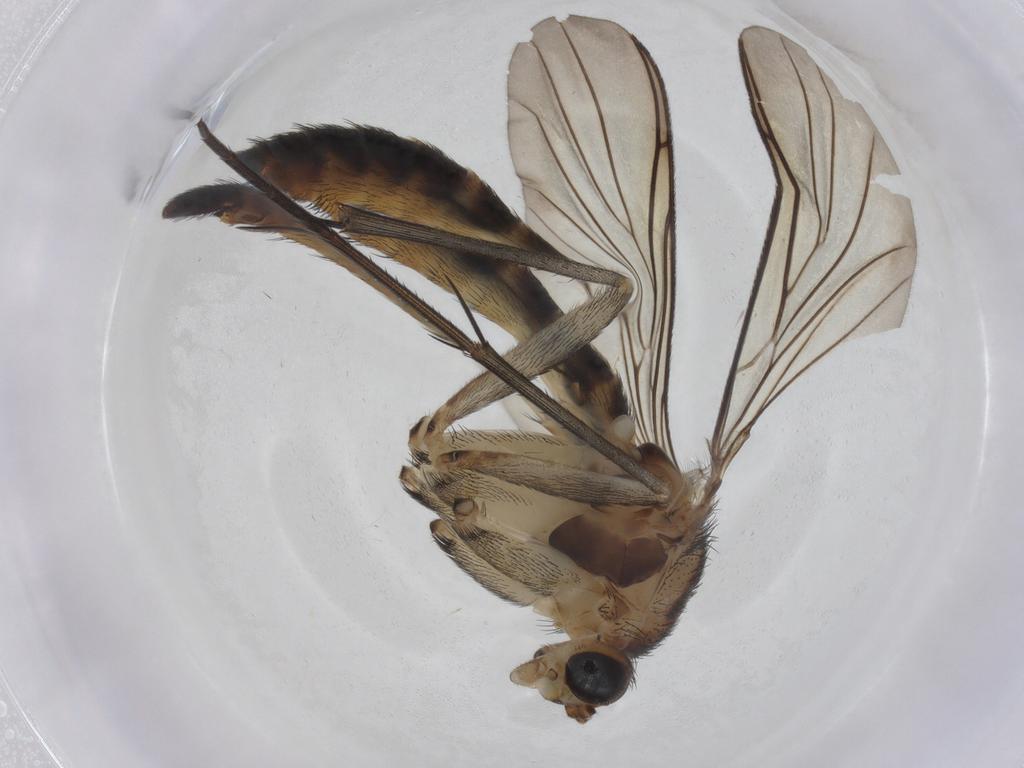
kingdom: Animalia
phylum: Arthropoda
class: Insecta
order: Diptera
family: Keroplatidae
